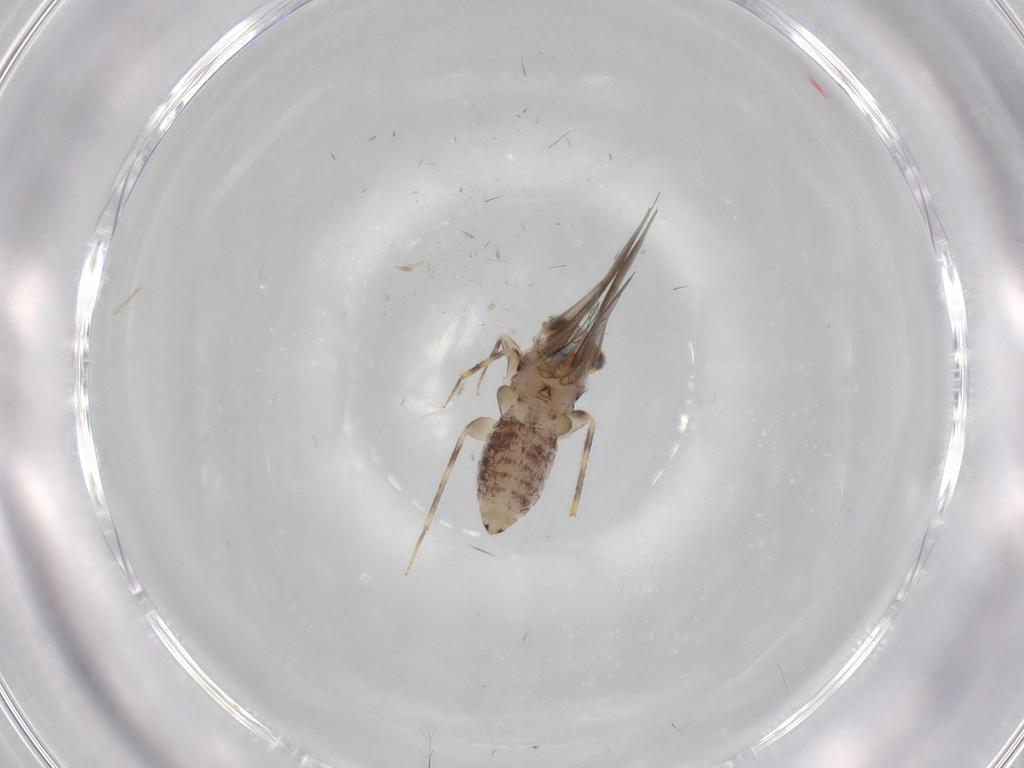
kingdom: Animalia
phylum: Arthropoda
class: Insecta
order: Psocodea
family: Lepidopsocidae
